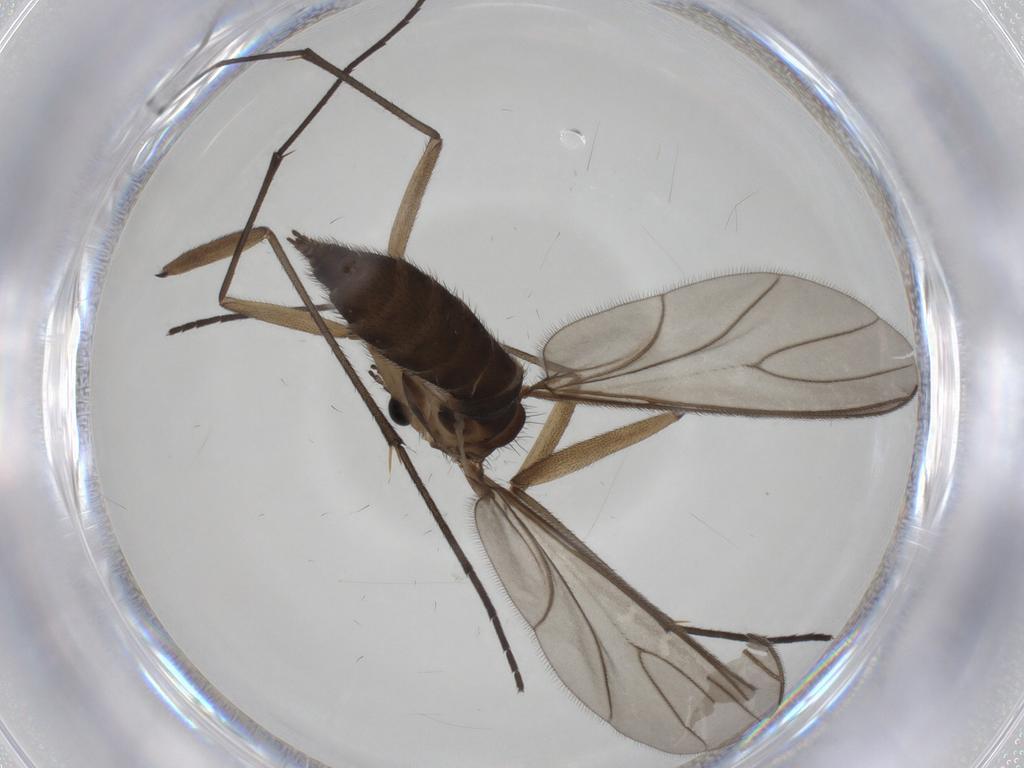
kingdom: Animalia
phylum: Arthropoda
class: Insecta
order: Diptera
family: Sciaridae
